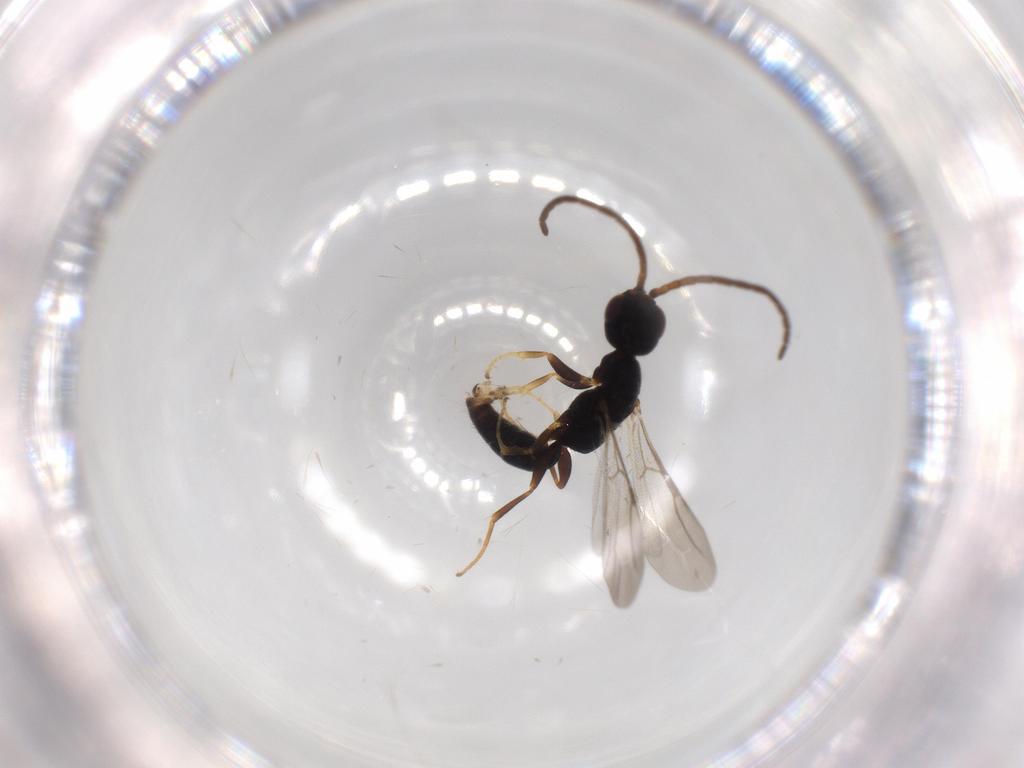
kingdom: Animalia
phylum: Arthropoda
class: Insecta
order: Hymenoptera
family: Bethylidae
